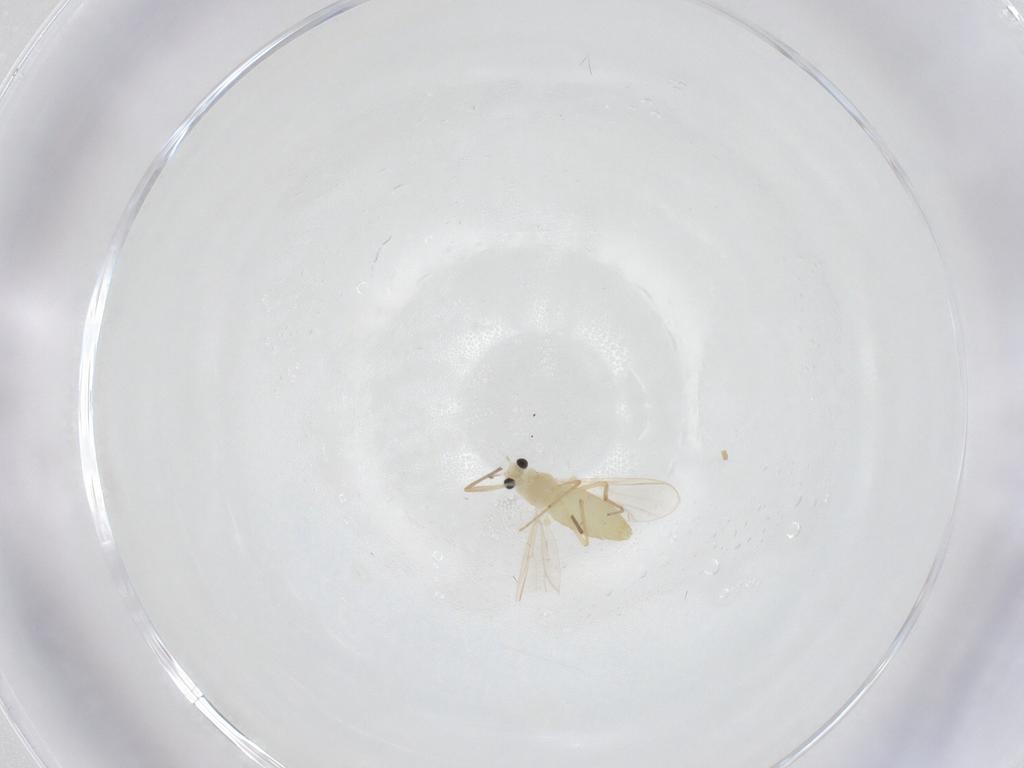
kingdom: Animalia
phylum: Arthropoda
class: Insecta
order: Diptera
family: Chironomidae
